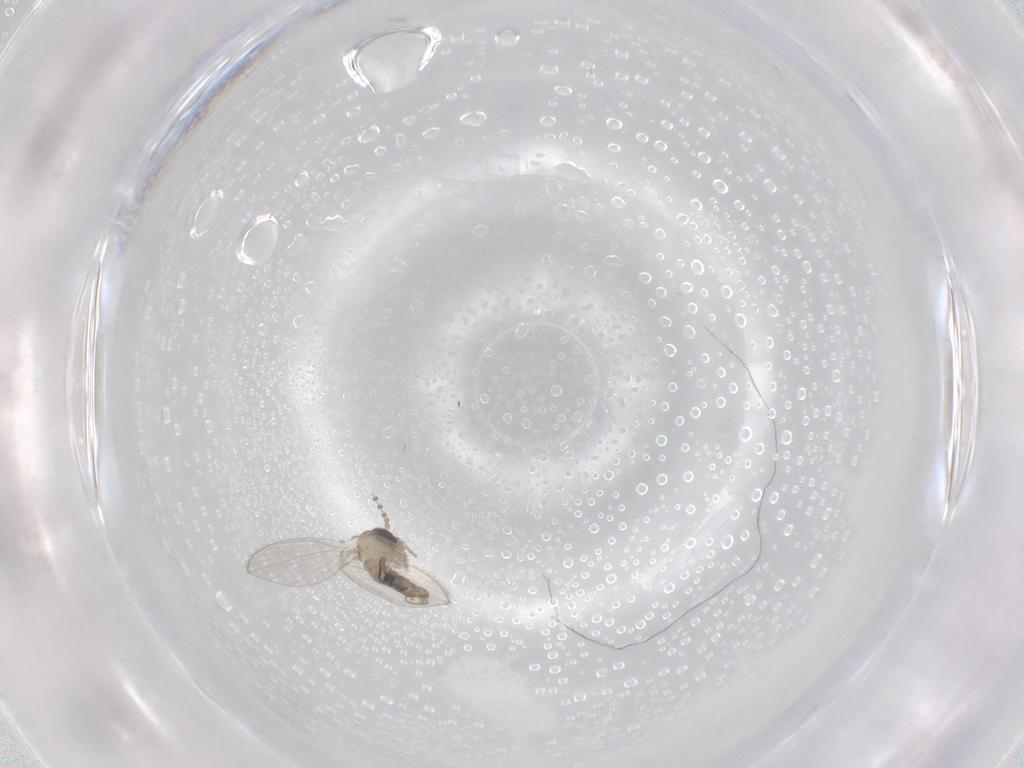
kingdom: Animalia
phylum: Arthropoda
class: Insecta
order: Diptera
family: Psychodidae
